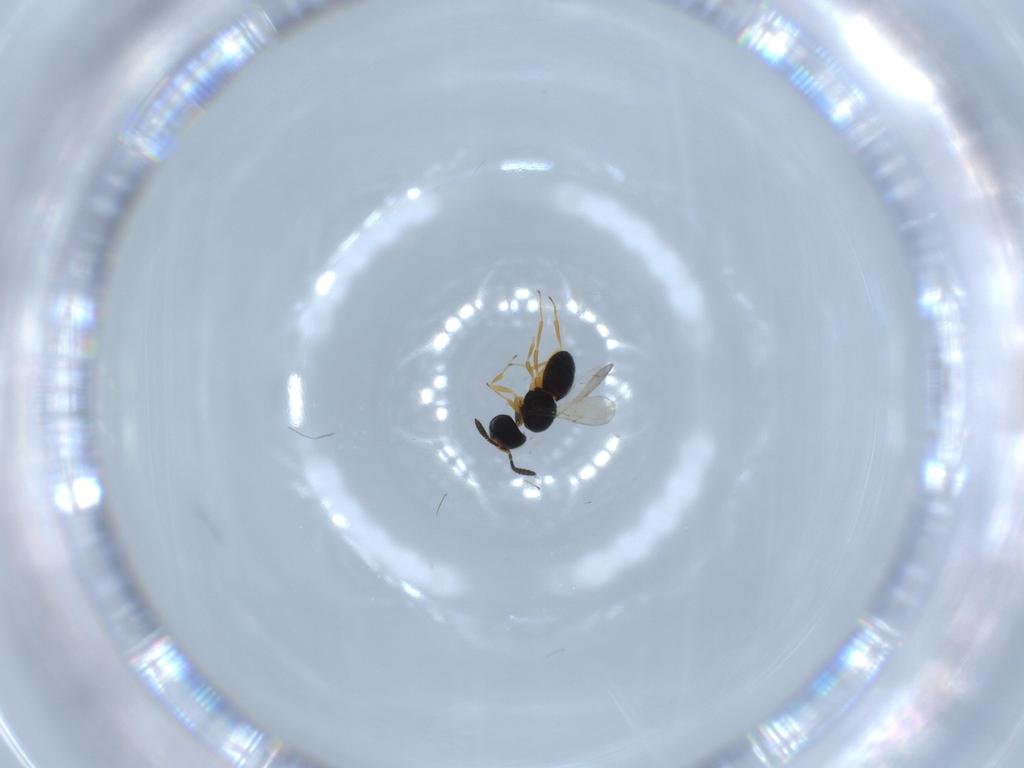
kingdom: Animalia
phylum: Arthropoda
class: Insecta
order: Hymenoptera
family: Scelionidae
